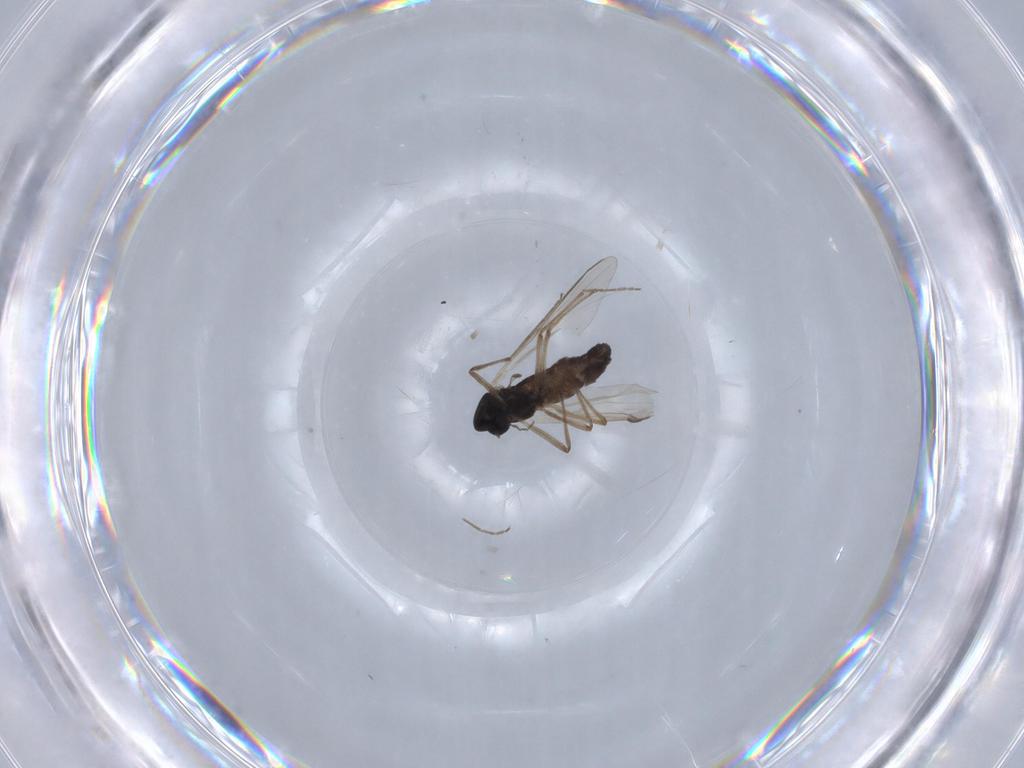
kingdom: Animalia
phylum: Arthropoda
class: Insecta
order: Diptera
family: Chironomidae
